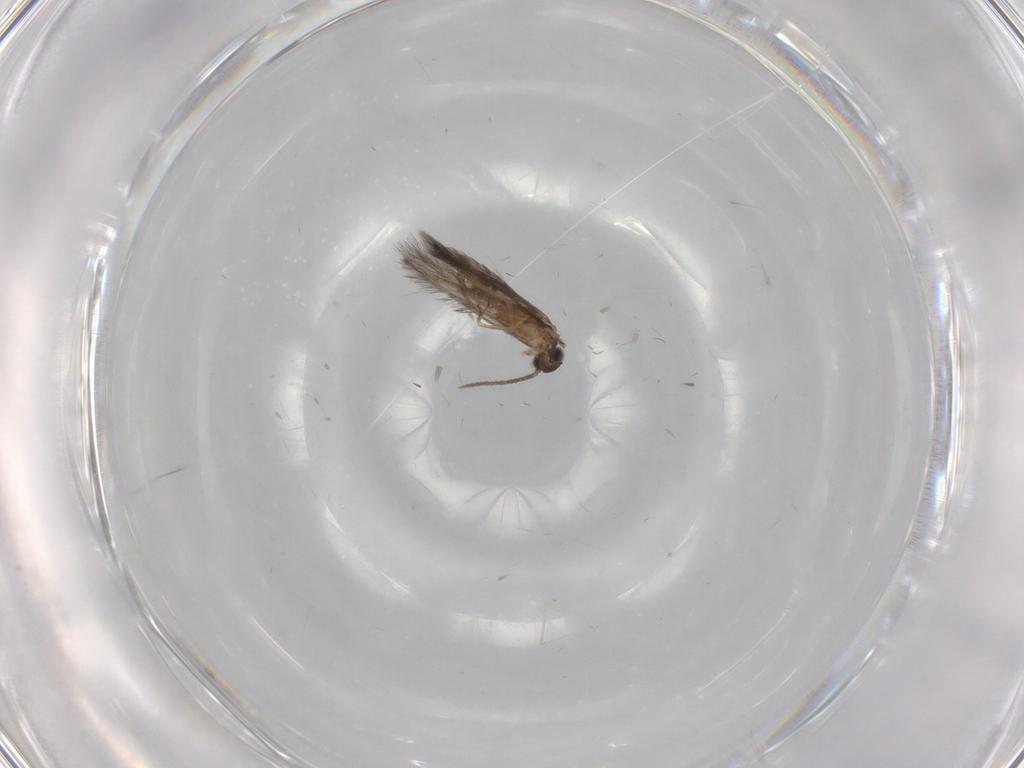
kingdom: Animalia
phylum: Arthropoda
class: Insecta
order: Trichoptera
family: Hydroptilidae
